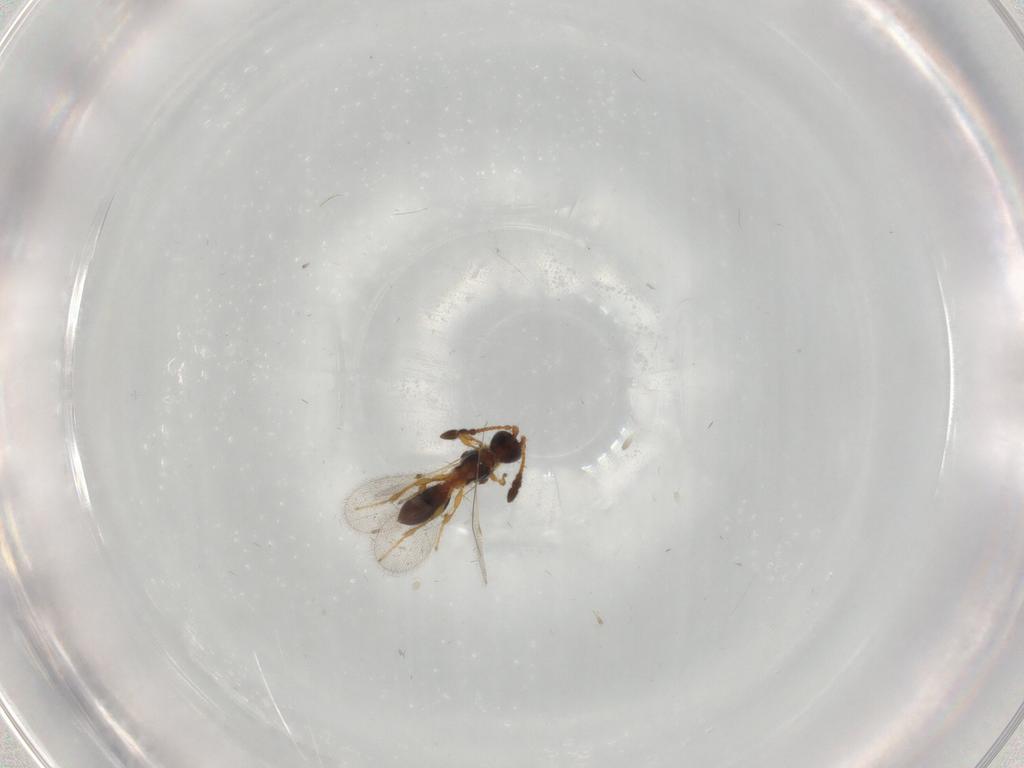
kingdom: Animalia
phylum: Arthropoda
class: Insecta
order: Hymenoptera
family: Diapriidae
